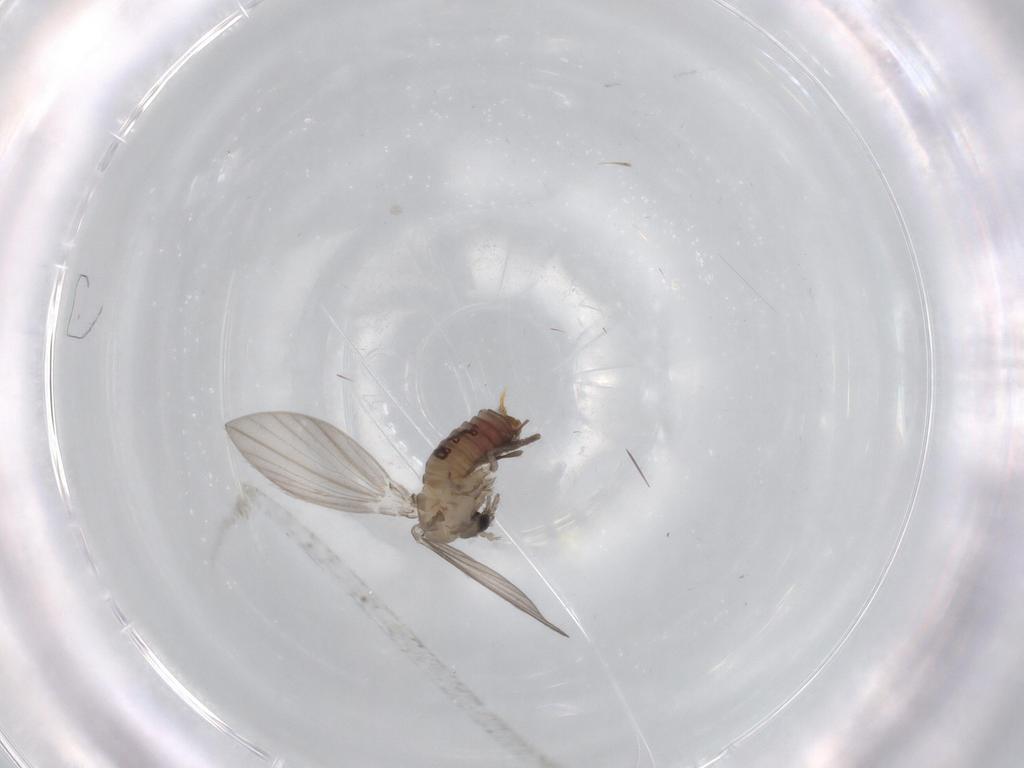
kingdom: Animalia
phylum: Arthropoda
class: Insecta
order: Diptera
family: Psychodidae
